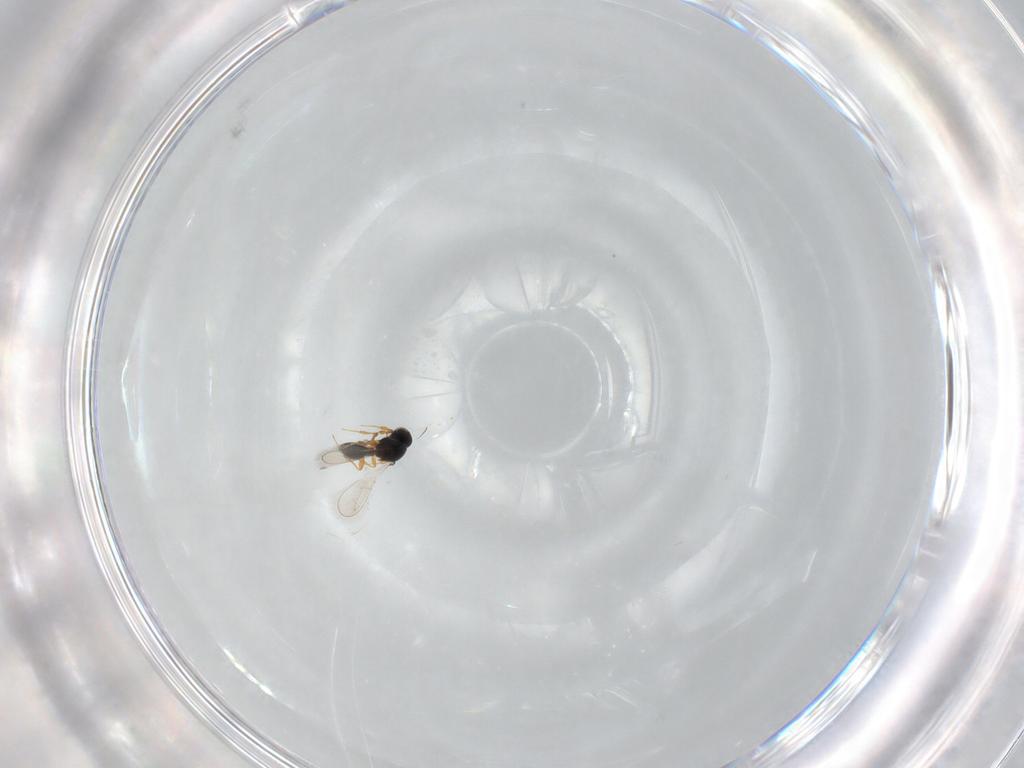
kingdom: Animalia
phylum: Arthropoda
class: Insecta
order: Hymenoptera
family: Platygastridae
